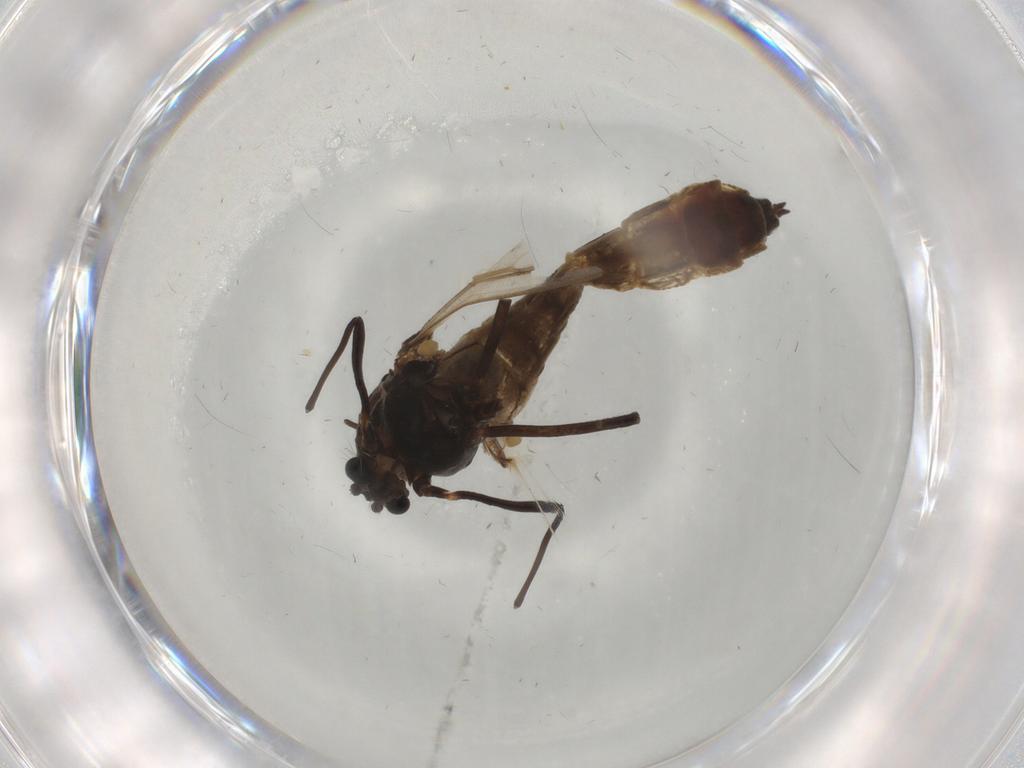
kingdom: Animalia
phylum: Arthropoda
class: Insecta
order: Diptera
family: Chironomidae
